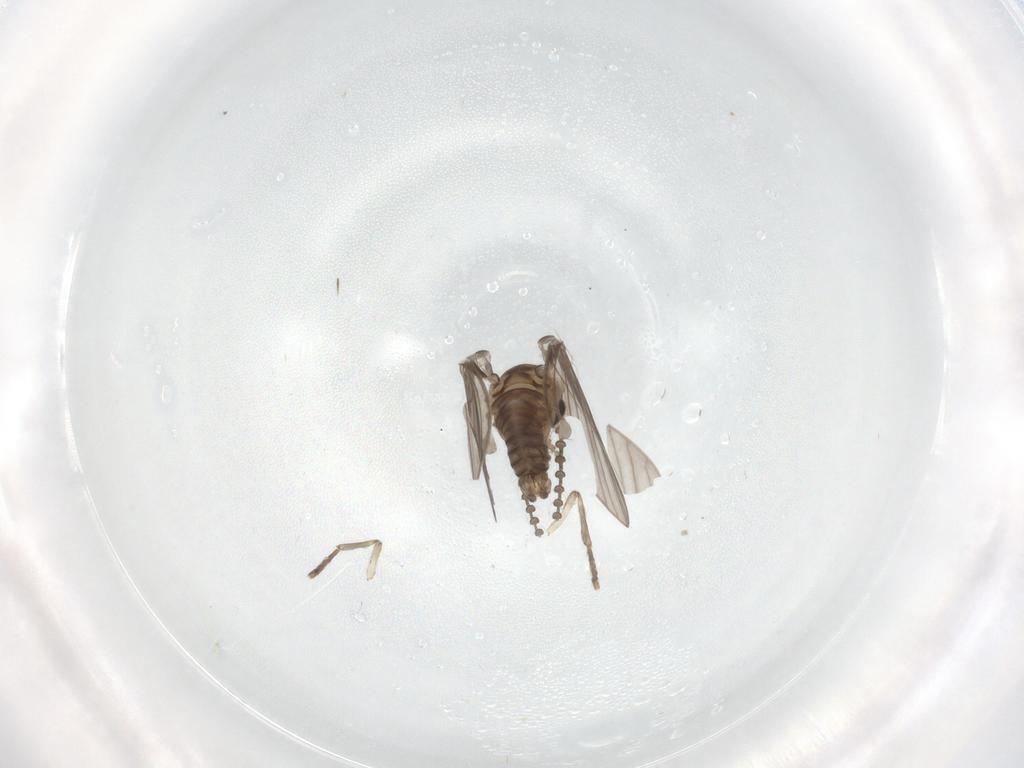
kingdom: Animalia
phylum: Arthropoda
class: Insecta
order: Diptera
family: Psychodidae
